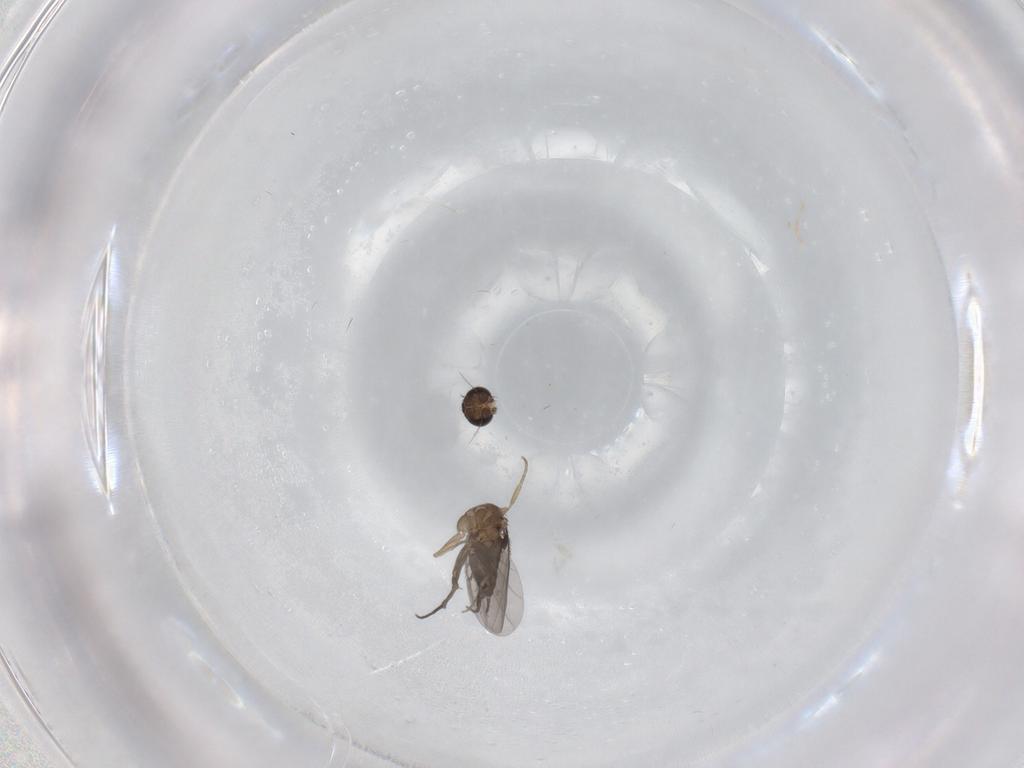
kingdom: Animalia
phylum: Arthropoda
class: Insecta
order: Diptera
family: Phoridae
